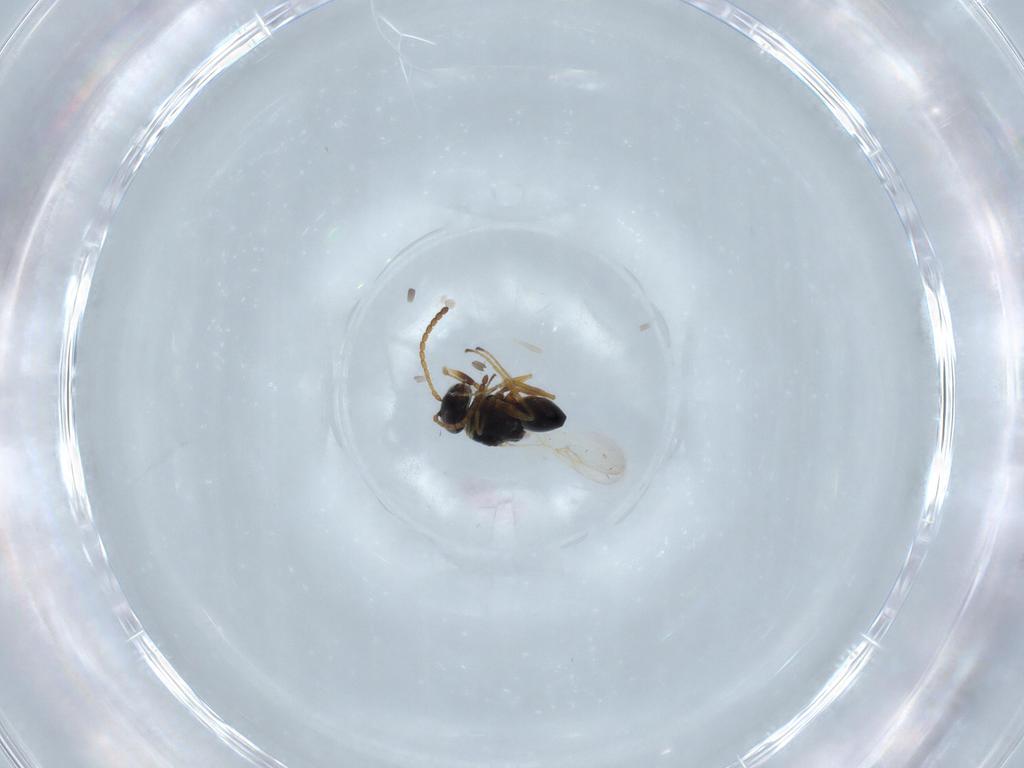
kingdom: Animalia
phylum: Arthropoda
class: Insecta
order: Hymenoptera
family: Figitidae
